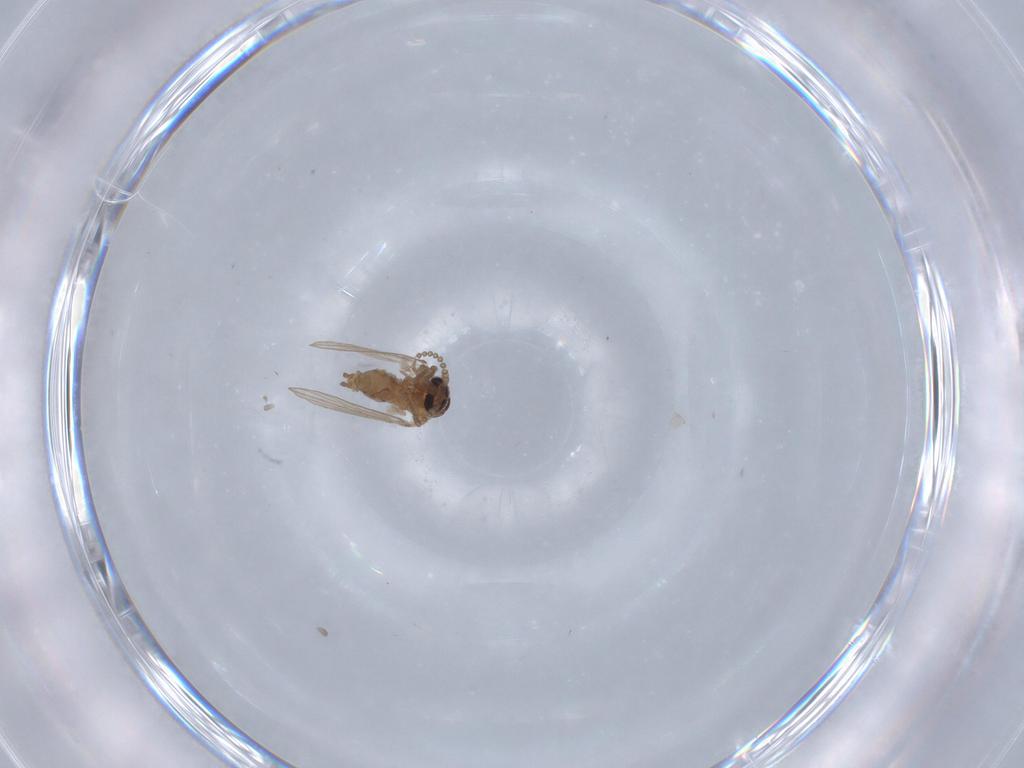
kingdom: Animalia
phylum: Arthropoda
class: Insecta
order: Diptera
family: Psychodidae
